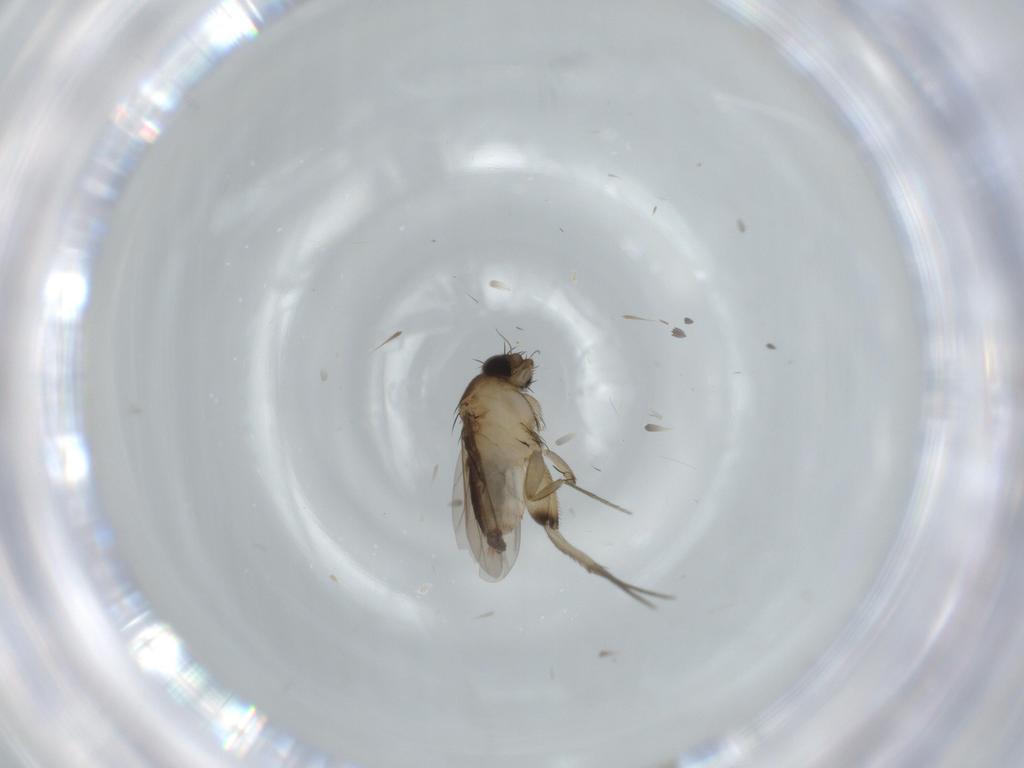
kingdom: Animalia
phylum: Arthropoda
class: Insecta
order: Diptera
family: Phoridae
